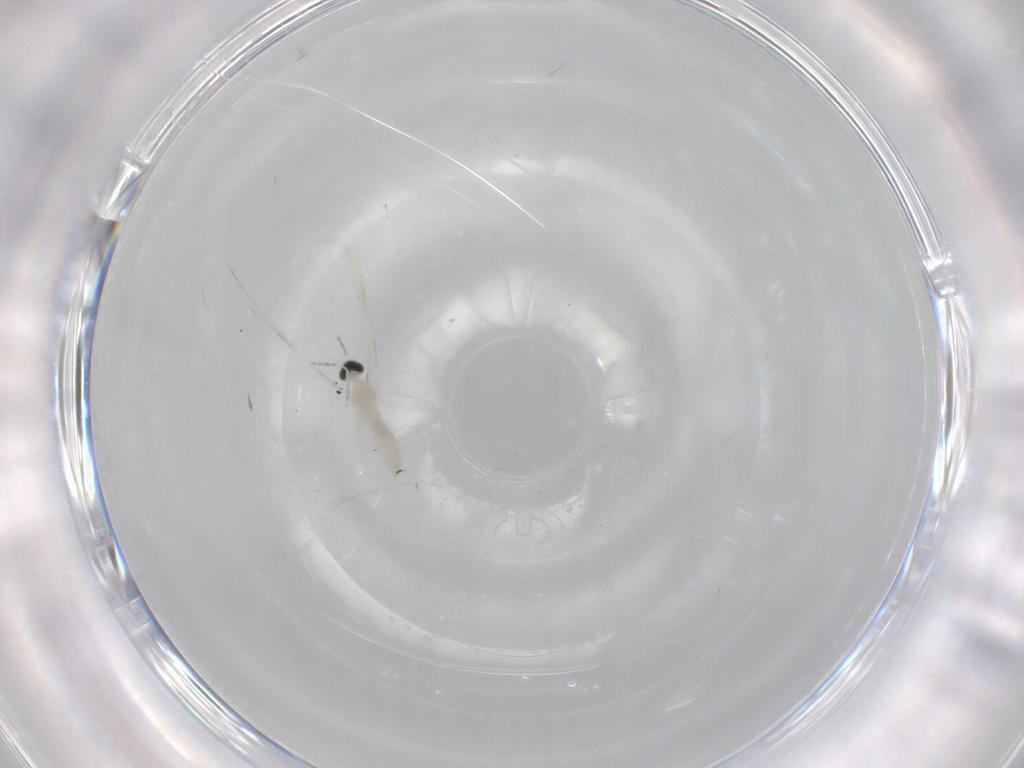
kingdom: Animalia
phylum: Arthropoda
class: Insecta
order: Diptera
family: Cecidomyiidae
